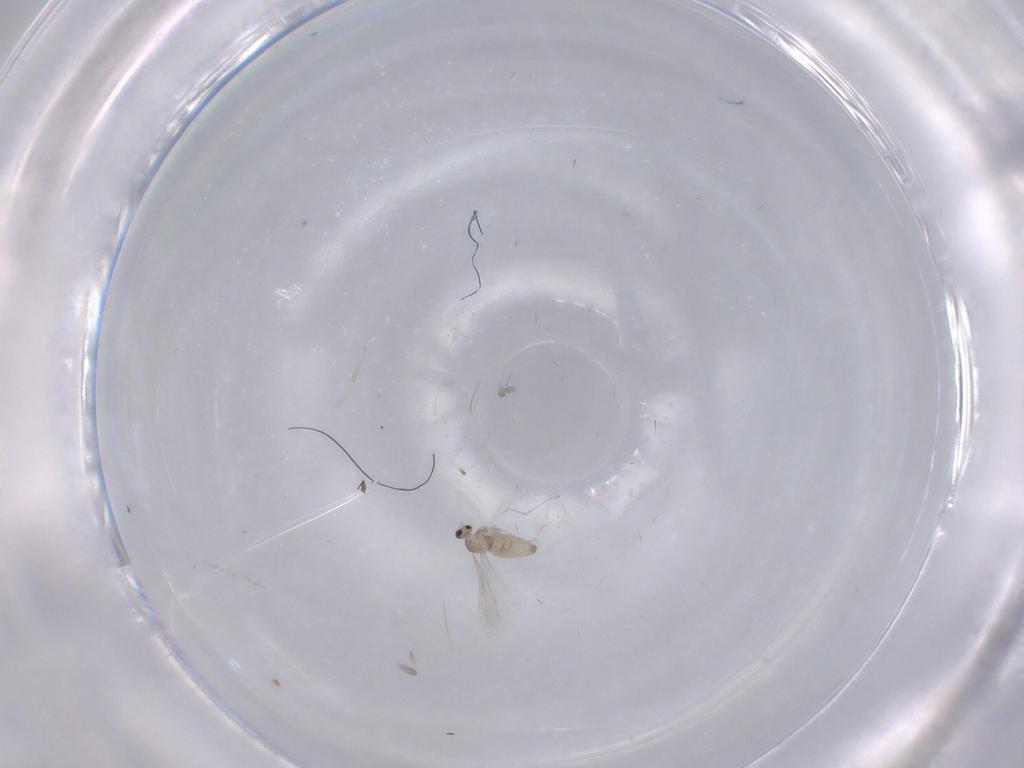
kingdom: Animalia
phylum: Arthropoda
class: Insecta
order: Diptera
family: Cecidomyiidae
